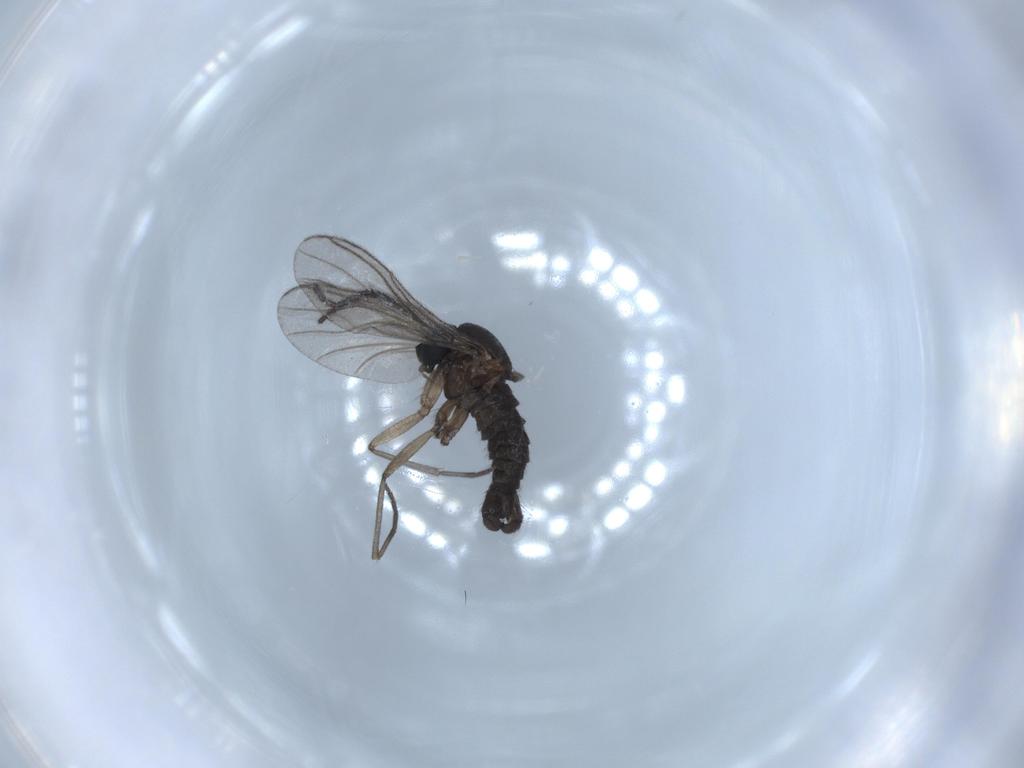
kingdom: Animalia
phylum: Arthropoda
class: Insecta
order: Diptera
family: Sciaridae
